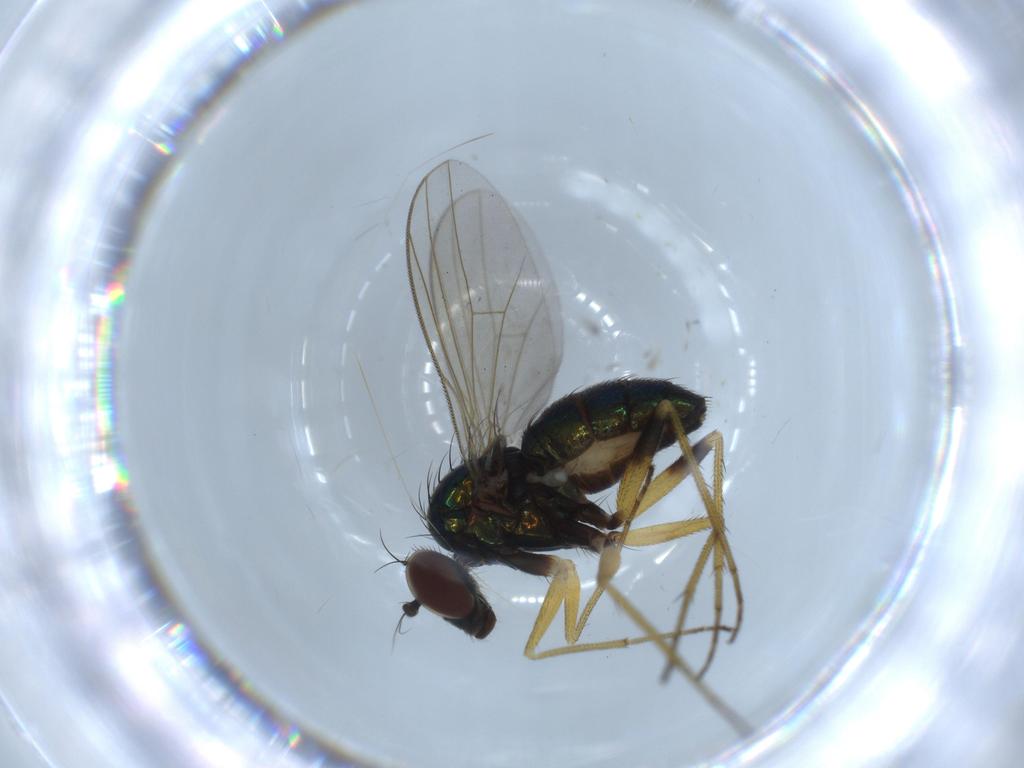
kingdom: Animalia
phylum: Arthropoda
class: Insecta
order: Diptera
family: Dolichopodidae
